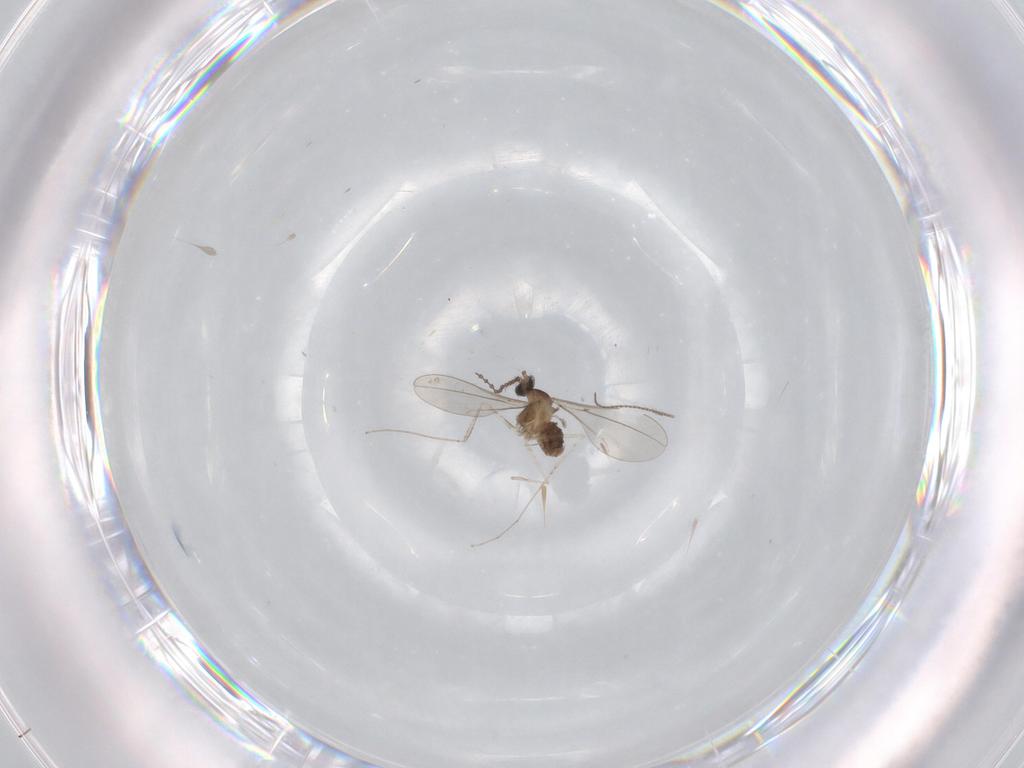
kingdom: Animalia
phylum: Arthropoda
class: Insecta
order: Diptera
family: Cecidomyiidae
